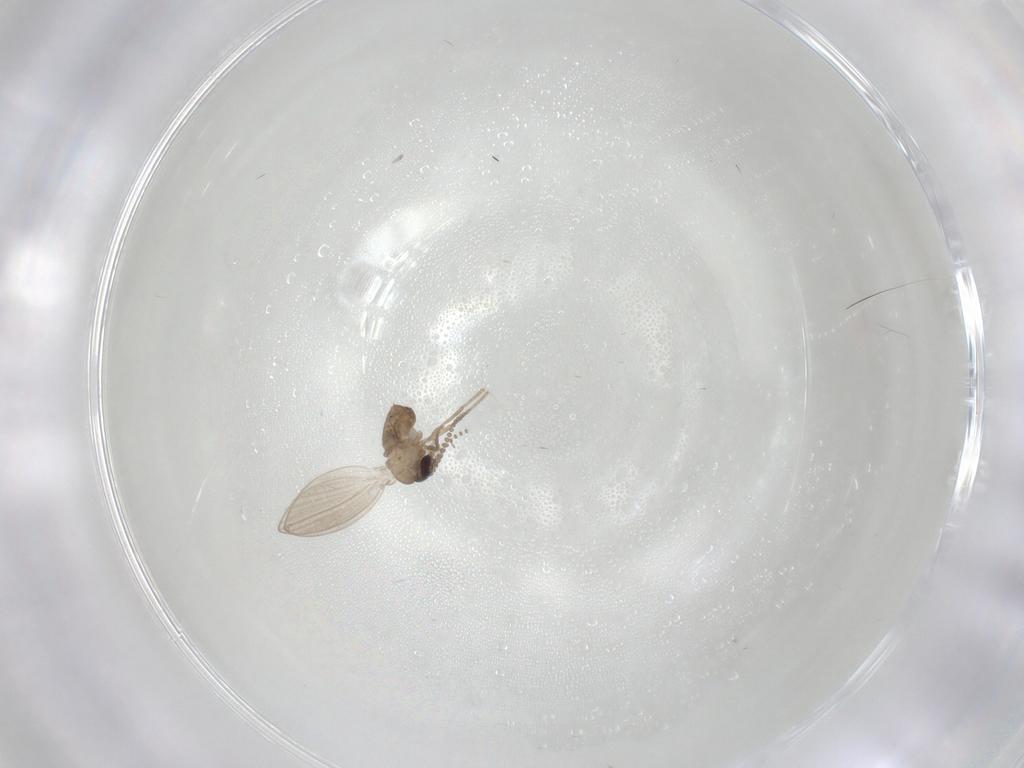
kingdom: Animalia
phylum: Arthropoda
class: Insecta
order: Diptera
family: Psychodidae
